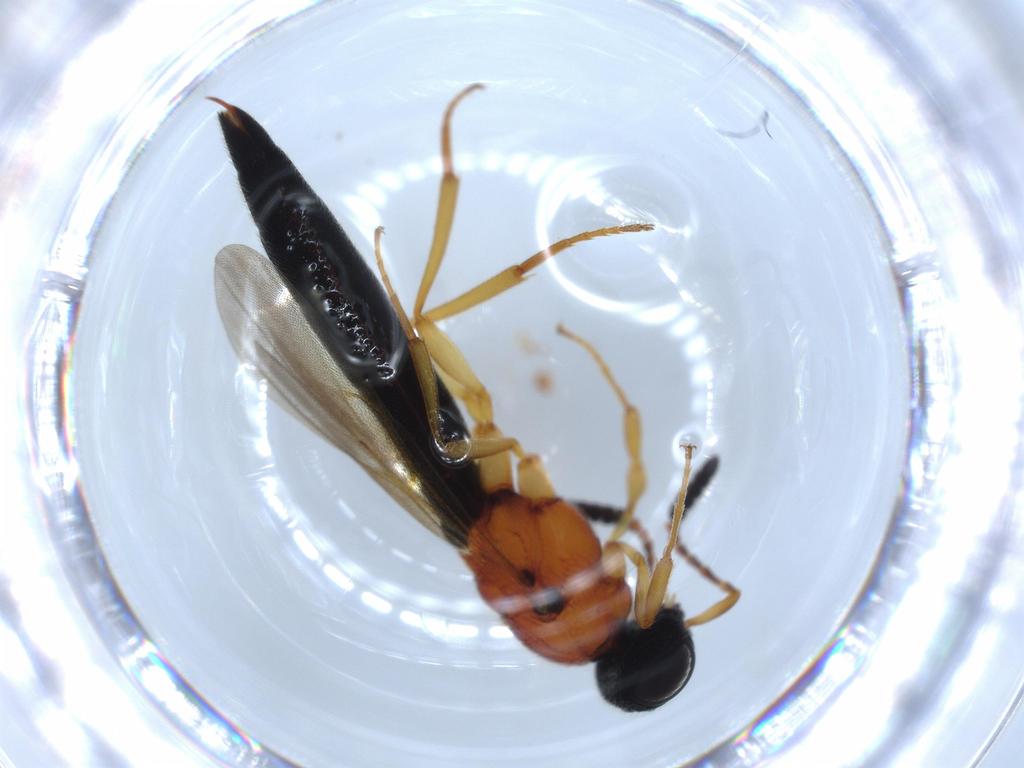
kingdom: Animalia
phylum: Arthropoda
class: Insecta
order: Hymenoptera
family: Scelionidae
